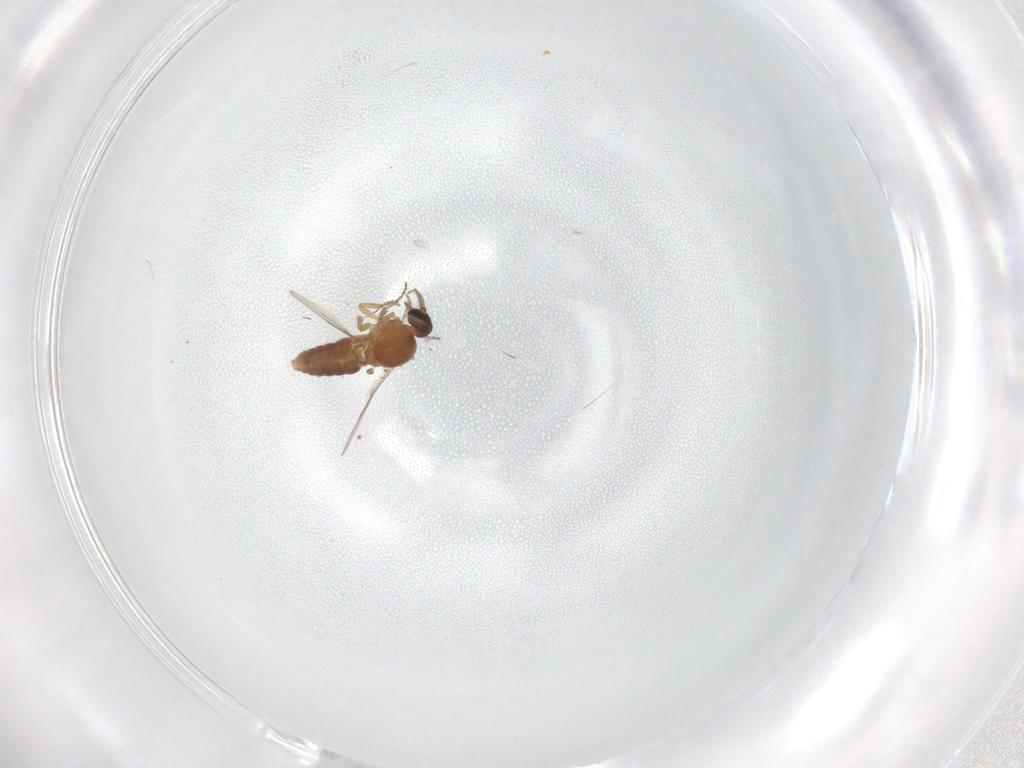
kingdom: Animalia
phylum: Arthropoda
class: Insecta
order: Diptera
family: Ceratopogonidae
